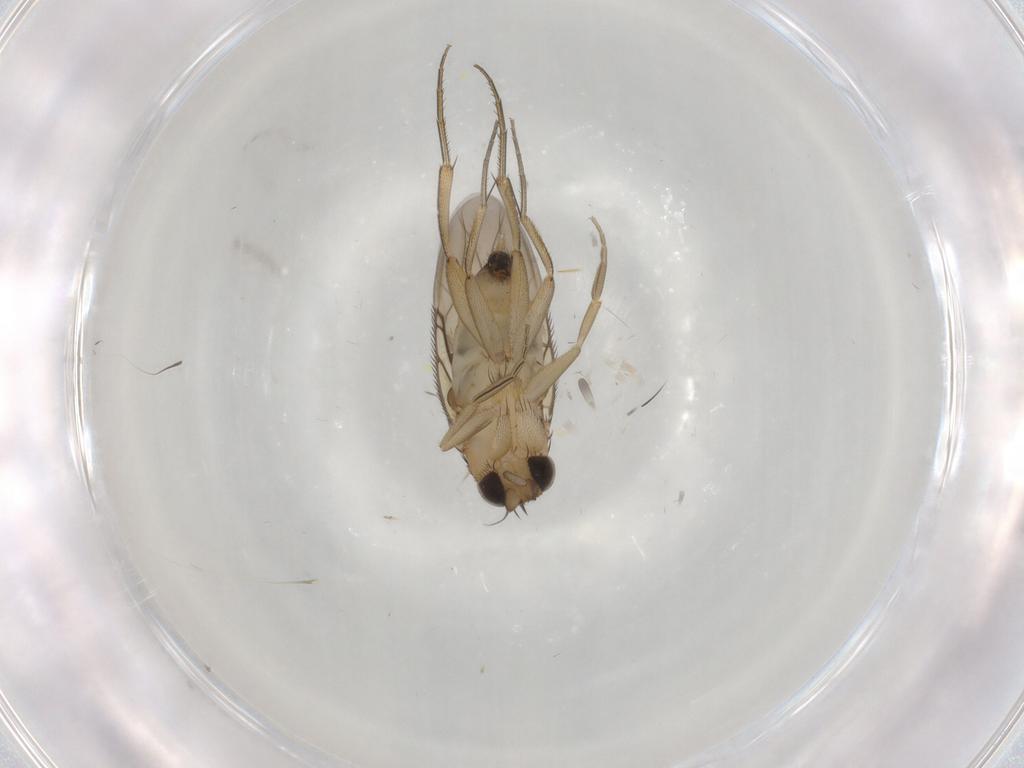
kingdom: Animalia
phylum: Arthropoda
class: Insecta
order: Diptera
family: Phoridae
